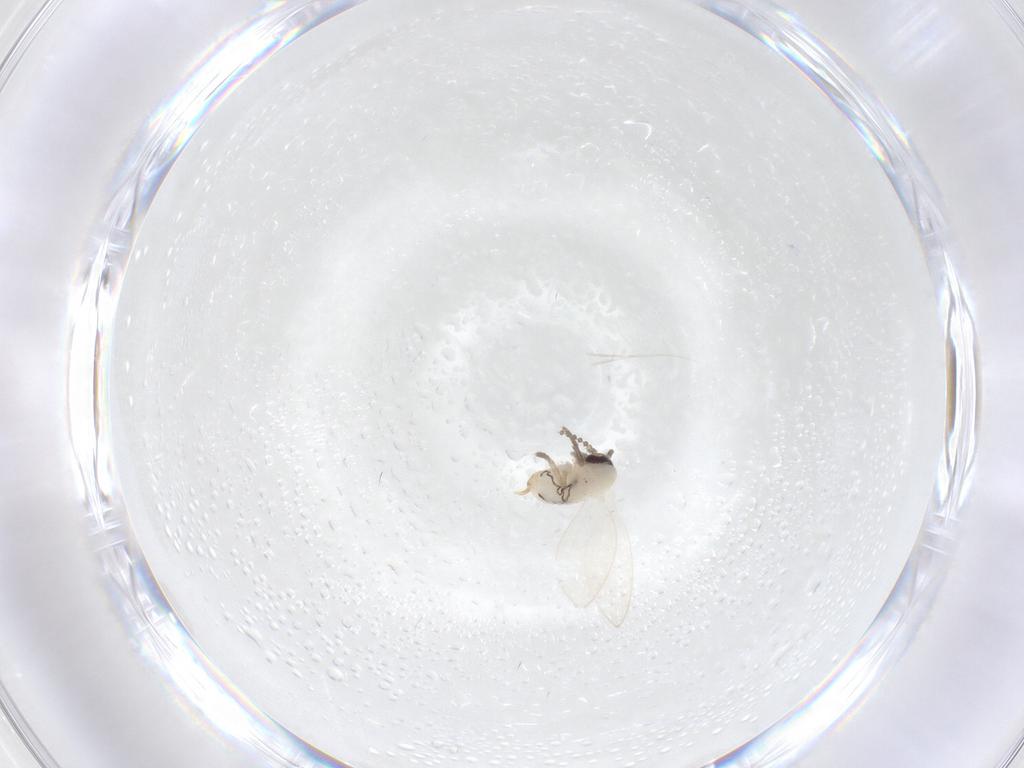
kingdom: Animalia
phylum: Arthropoda
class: Insecta
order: Diptera
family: Psychodidae
